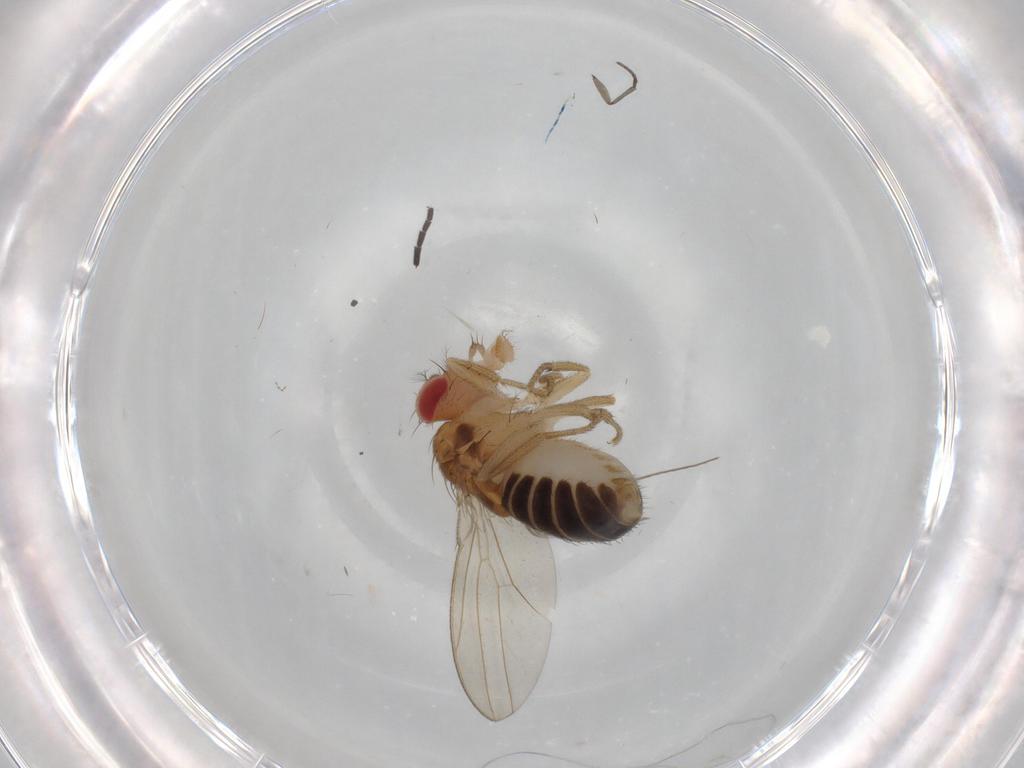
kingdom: Animalia
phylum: Arthropoda
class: Insecta
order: Diptera
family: Drosophilidae
